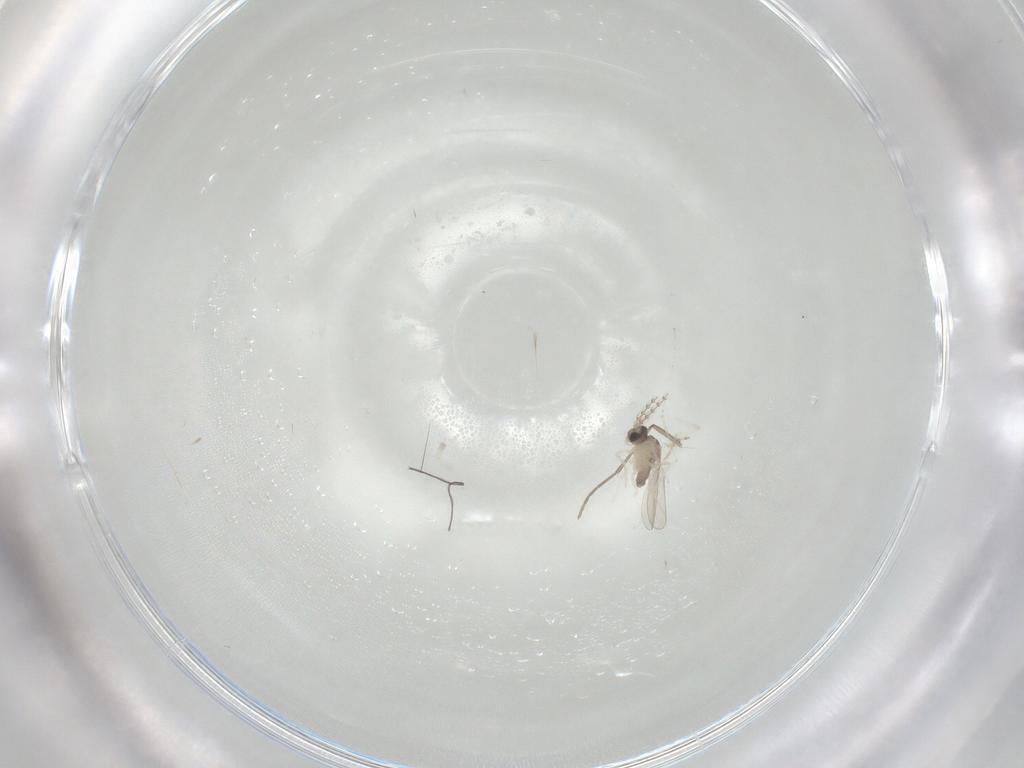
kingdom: Animalia
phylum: Arthropoda
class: Insecta
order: Diptera
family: Cecidomyiidae
